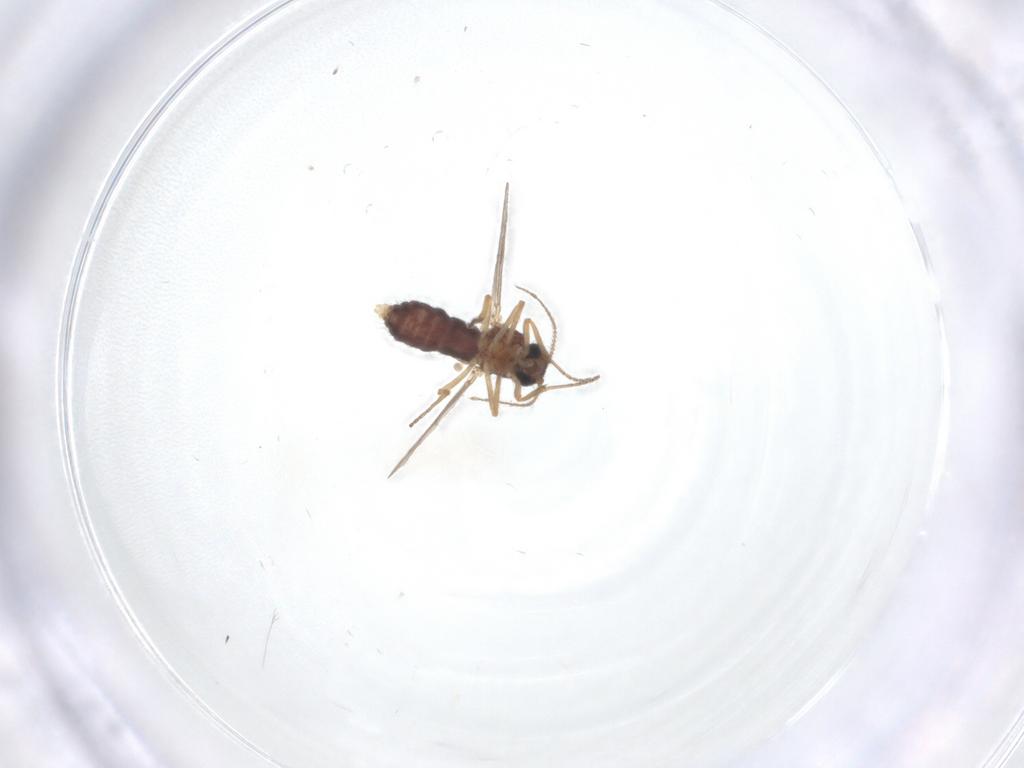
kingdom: Animalia
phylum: Arthropoda
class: Insecta
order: Diptera
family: Ceratopogonidae
